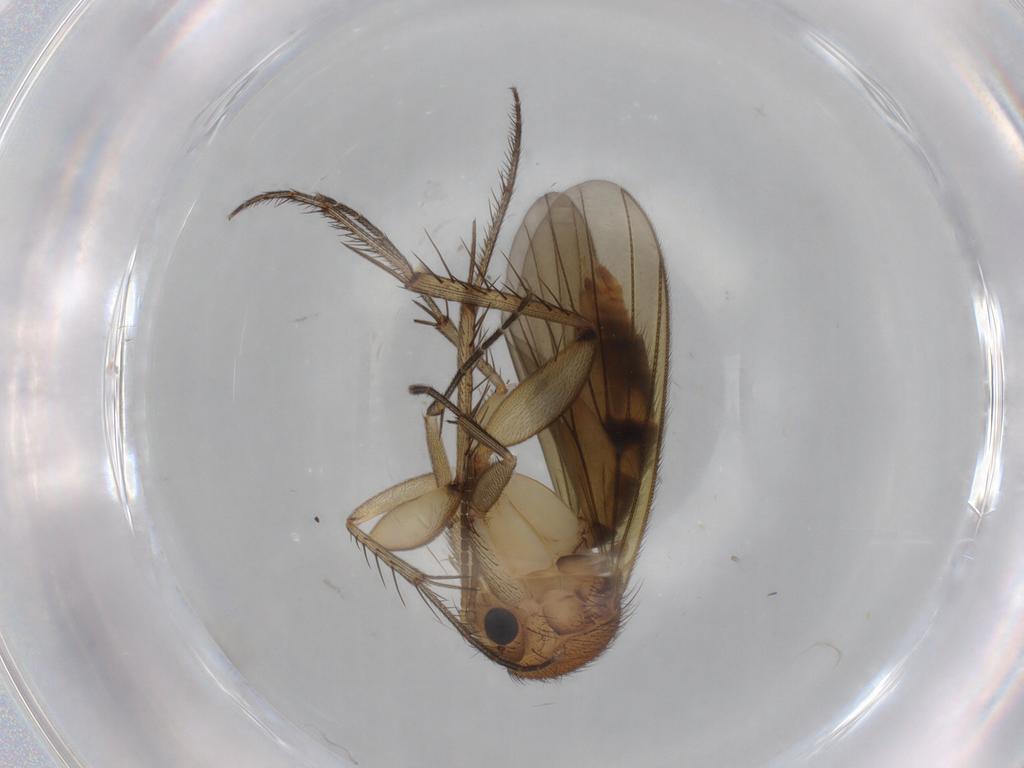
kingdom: Animalia
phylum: Arthropoda
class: Insecta
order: Diptera
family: Mycetophilidae
